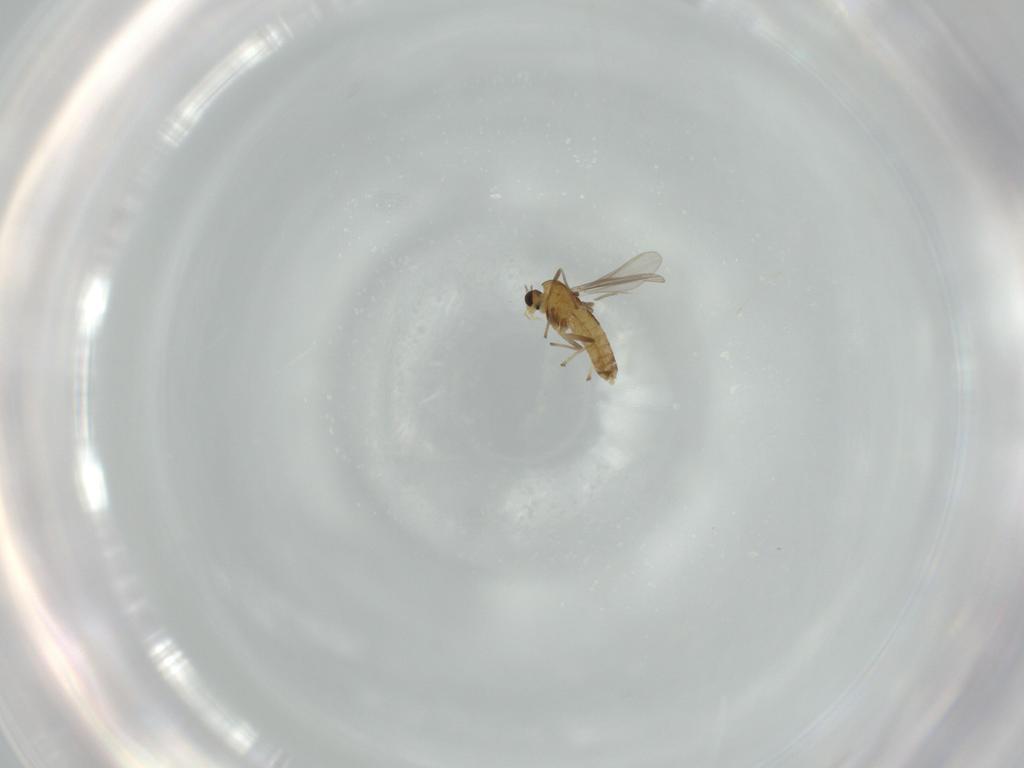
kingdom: Animalia
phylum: Arthropoda
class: Insecta
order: Diptera
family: Chironomidae
